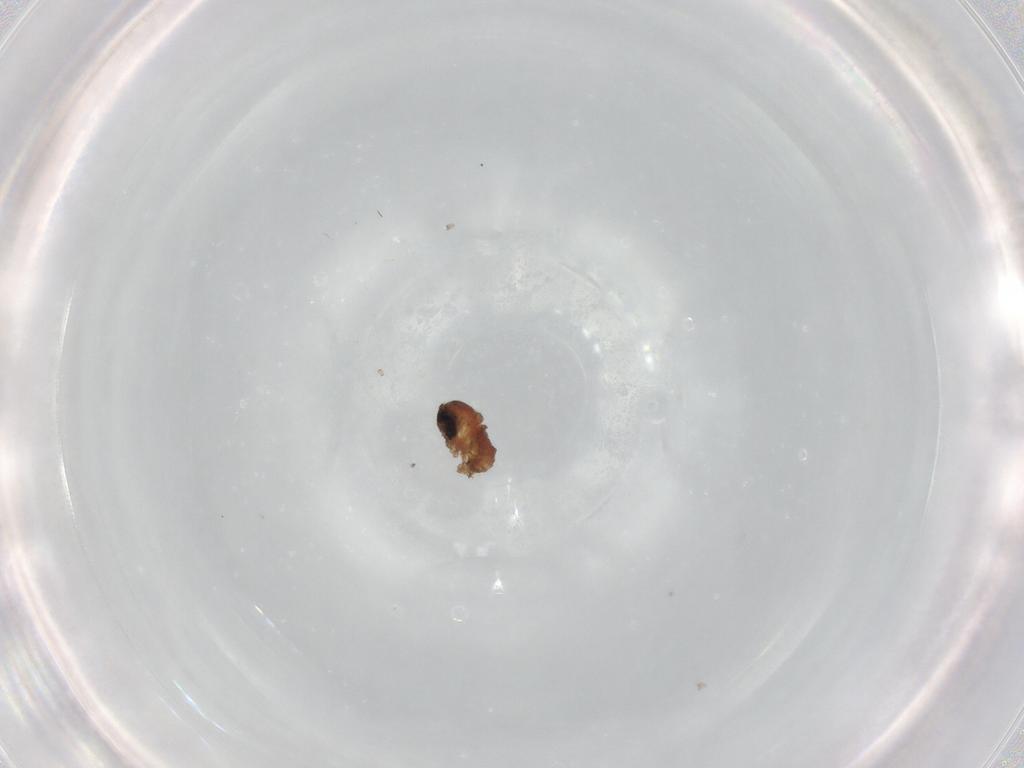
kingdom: Animalia
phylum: Arthropoda
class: Insecta
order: Diptera
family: Psychodidae
